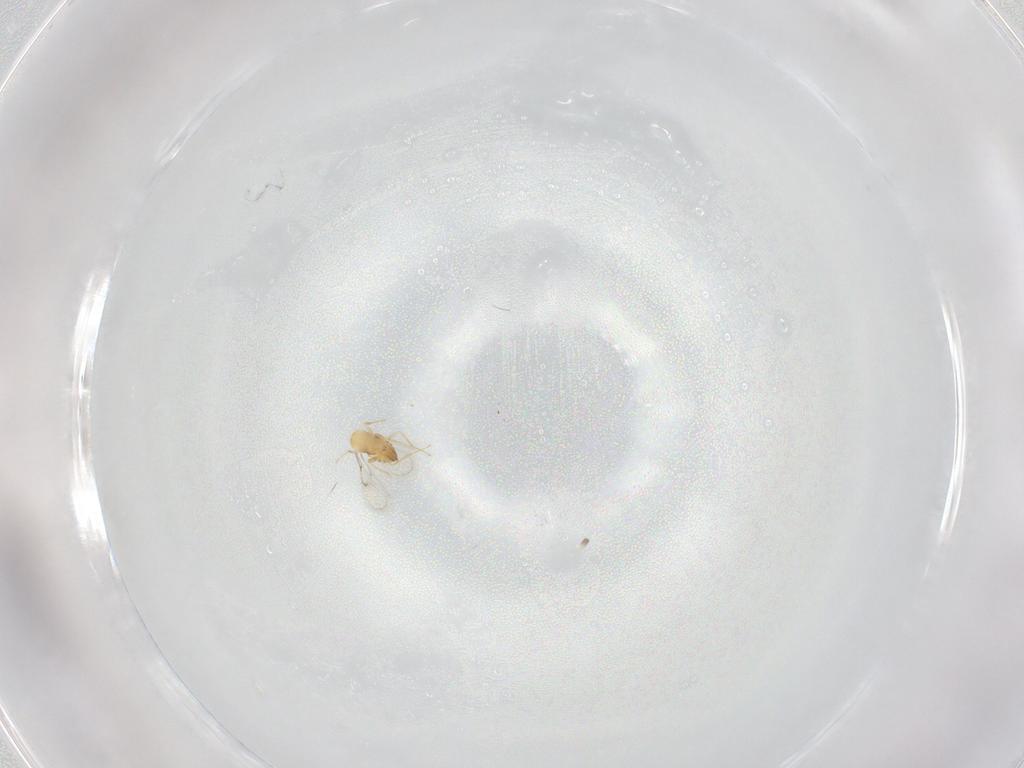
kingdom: Animalia
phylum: Arthropoda
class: Insecta
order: Hymenoptera
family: Trichogrammatidae
